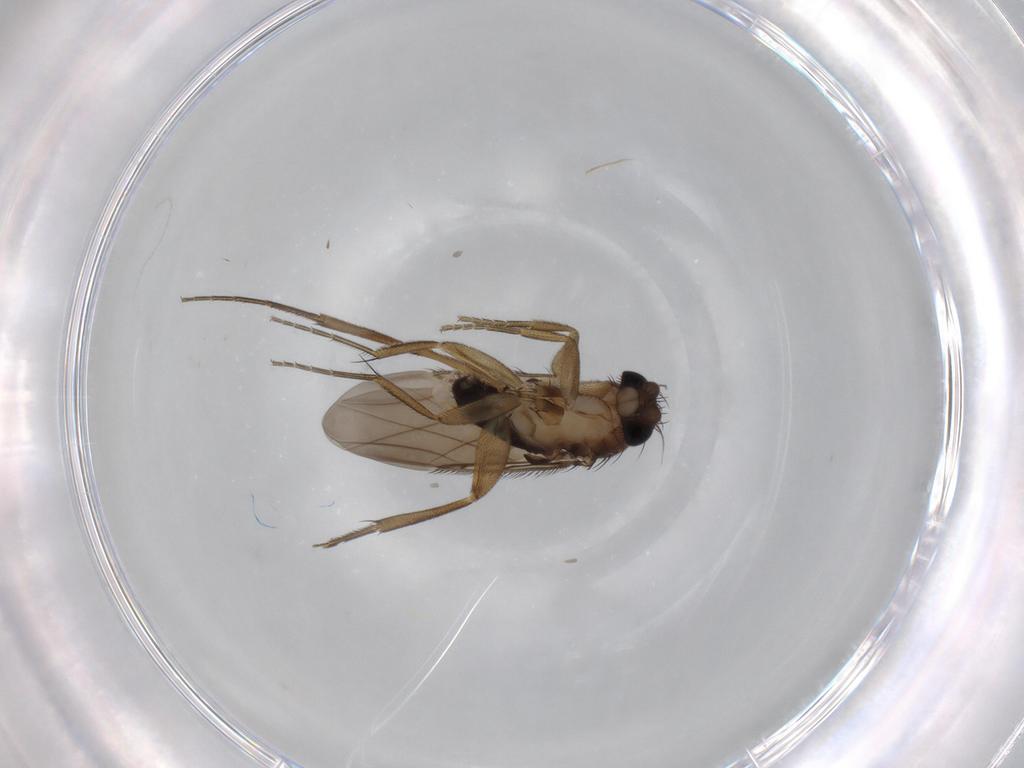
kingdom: Animalia
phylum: Arthropoda
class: Insecta
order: Diptera
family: Phoridae
